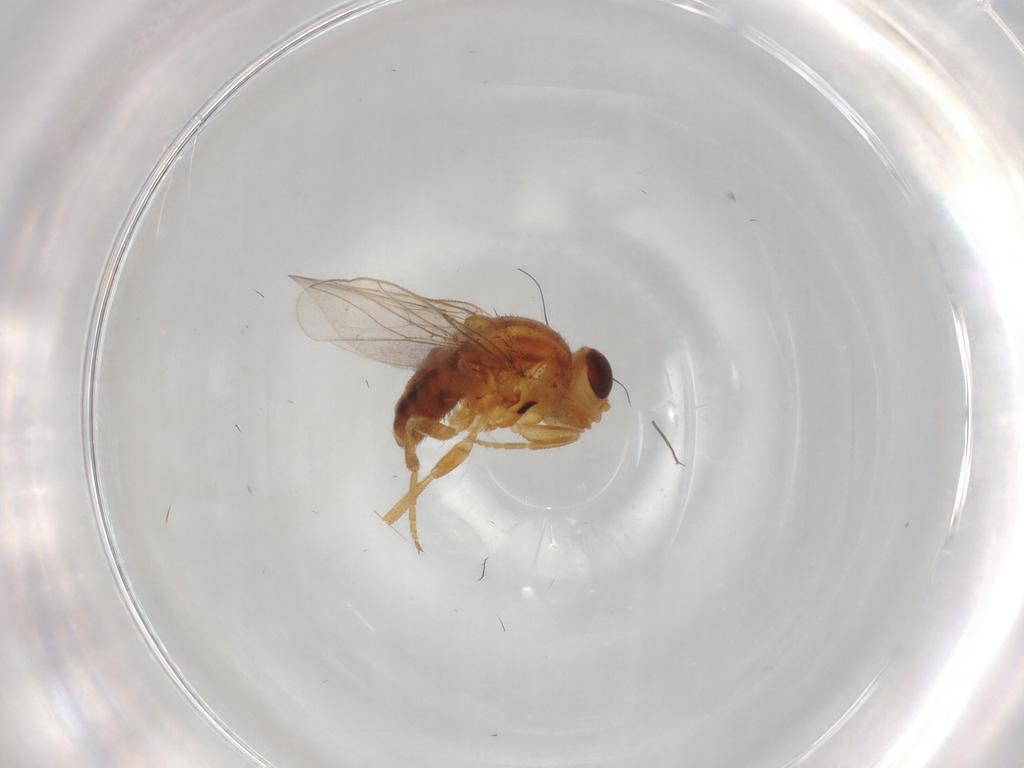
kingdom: Animalia
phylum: Arthropoda
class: Insecta
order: Diptera
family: Chloropidae
